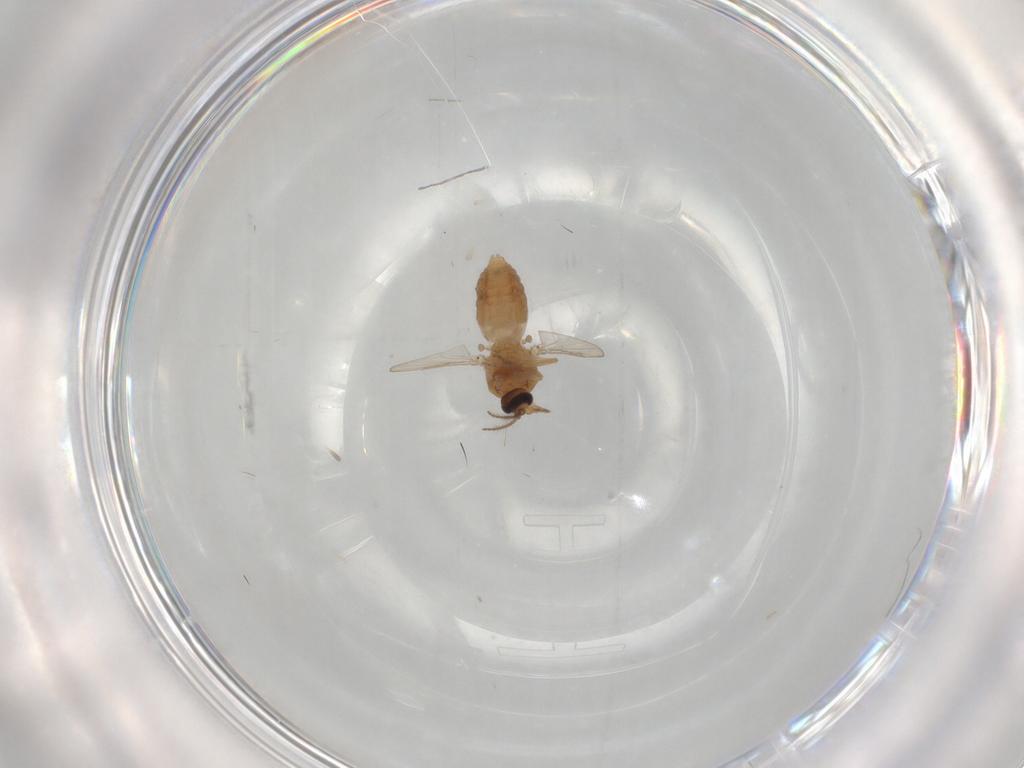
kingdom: Animalia
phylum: Arthropoda
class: Insecta
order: Diptera
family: Ceratopogonidae
